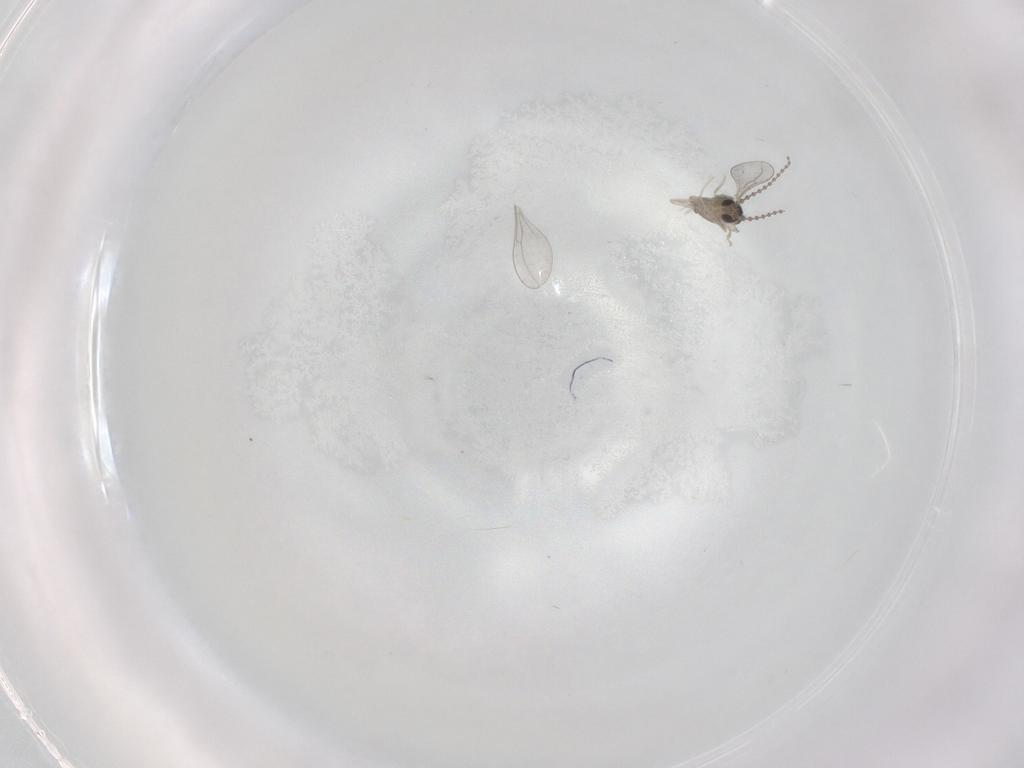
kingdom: Animalia
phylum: Arthropoda
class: Insecta
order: Diptera
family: Cecidomyiidae
